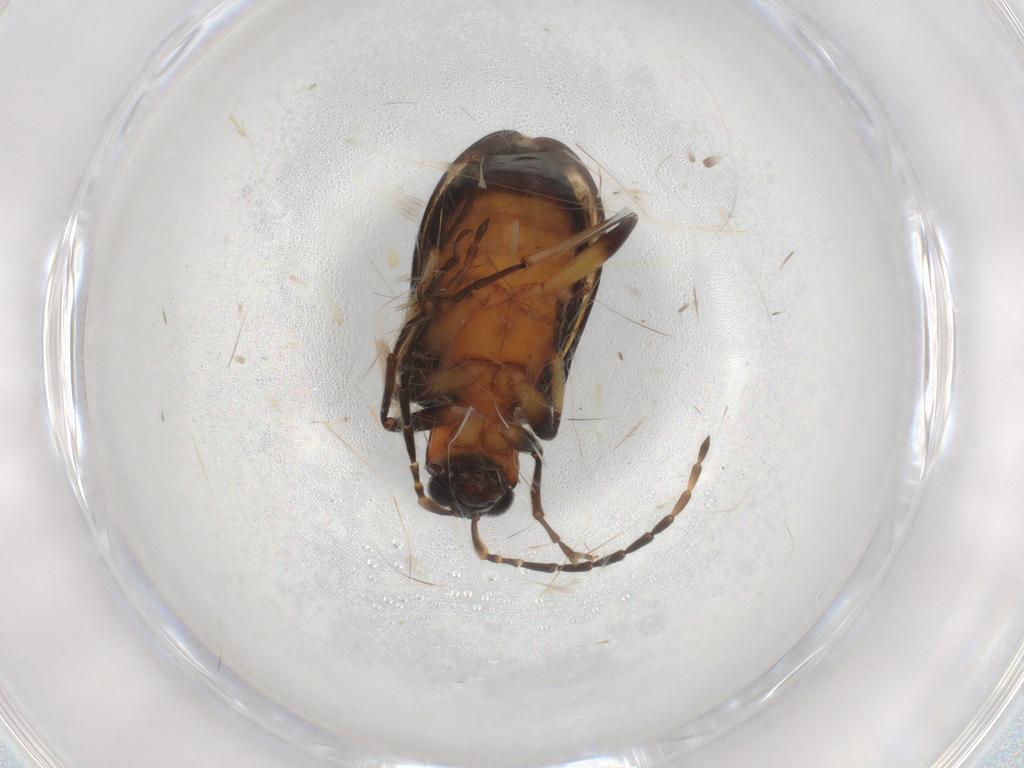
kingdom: Animalia
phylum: Arthropoda
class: Insecta
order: Coleoptera
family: Chrysomelidae
